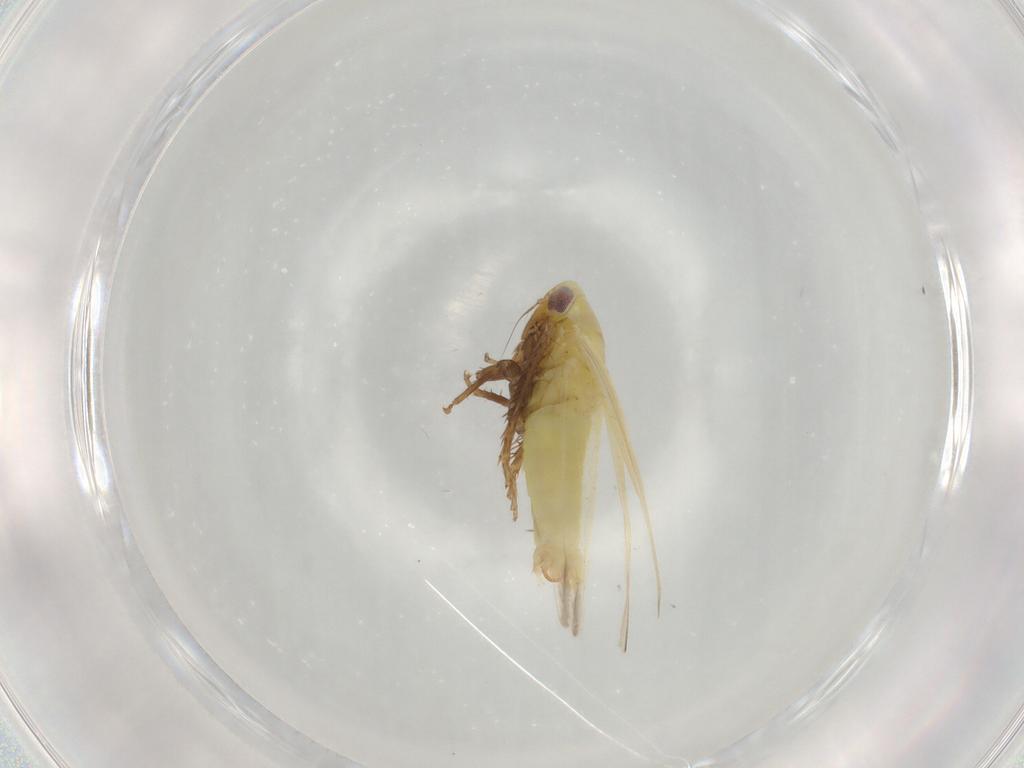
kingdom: Animalia
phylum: Arthropoda
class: Insecta
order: Hemiptera
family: Cicadellidae
